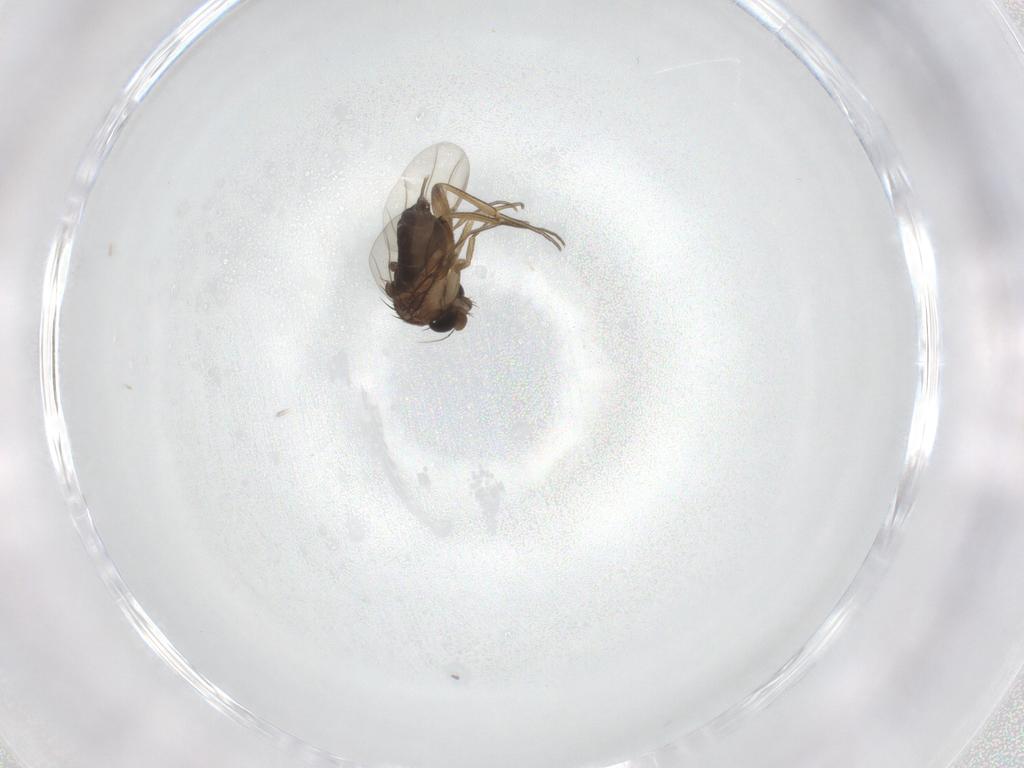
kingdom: Animalia
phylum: Arthropoda
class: Insecta
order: Diptera
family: Phoridae
